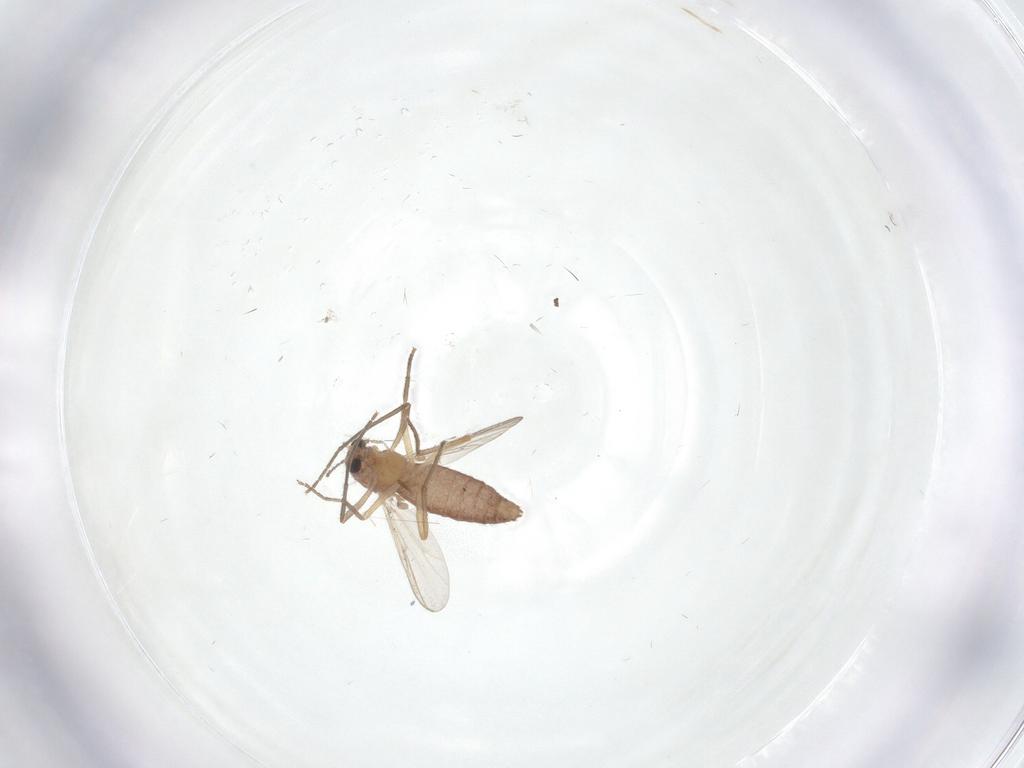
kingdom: Animalia
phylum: Arthropoda
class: Insecta
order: Diptera
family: Chironomidae
